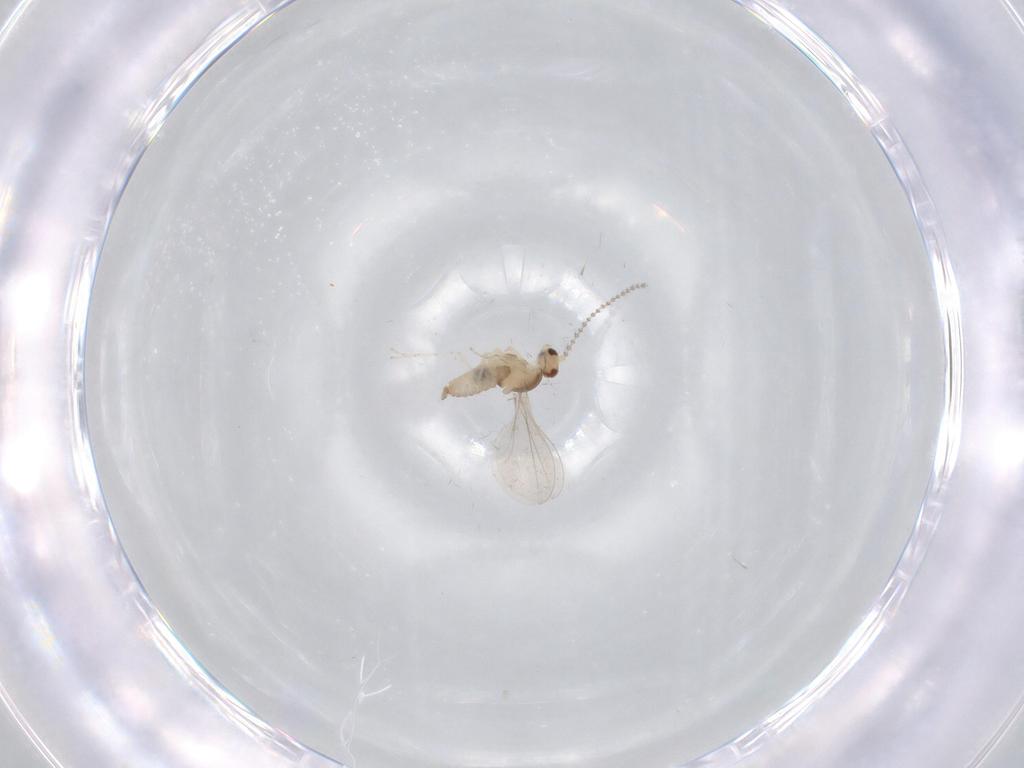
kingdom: Animalia
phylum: Arthropoda
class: Insecta
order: Diptera
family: Cecidomyiidae
